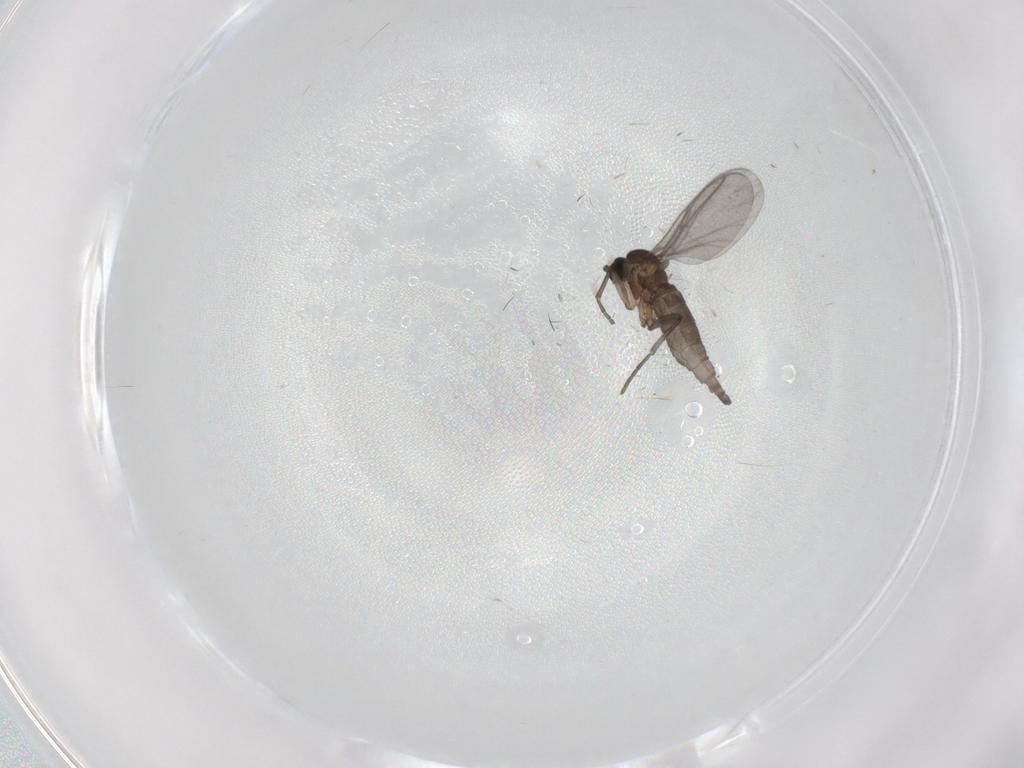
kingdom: Animalia
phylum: Arthropoda
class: Insecta
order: Diptera
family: Sciaridae
